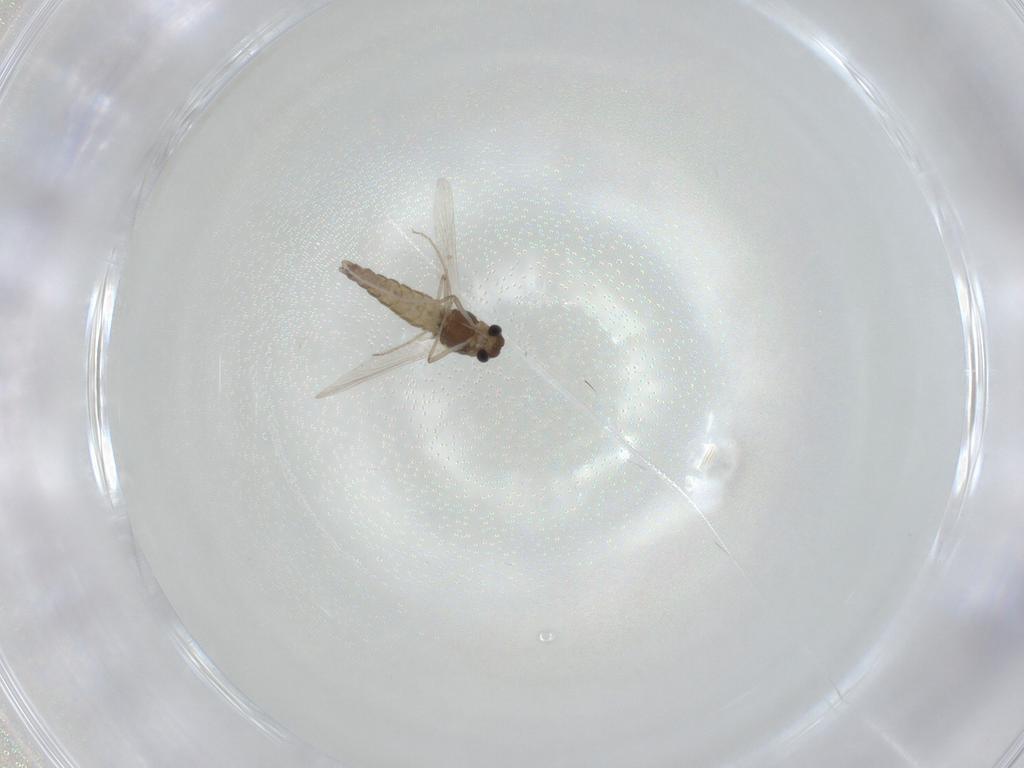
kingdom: Animalia
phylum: Arthropoda
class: Insecta
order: Diptera
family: Chironomidae
